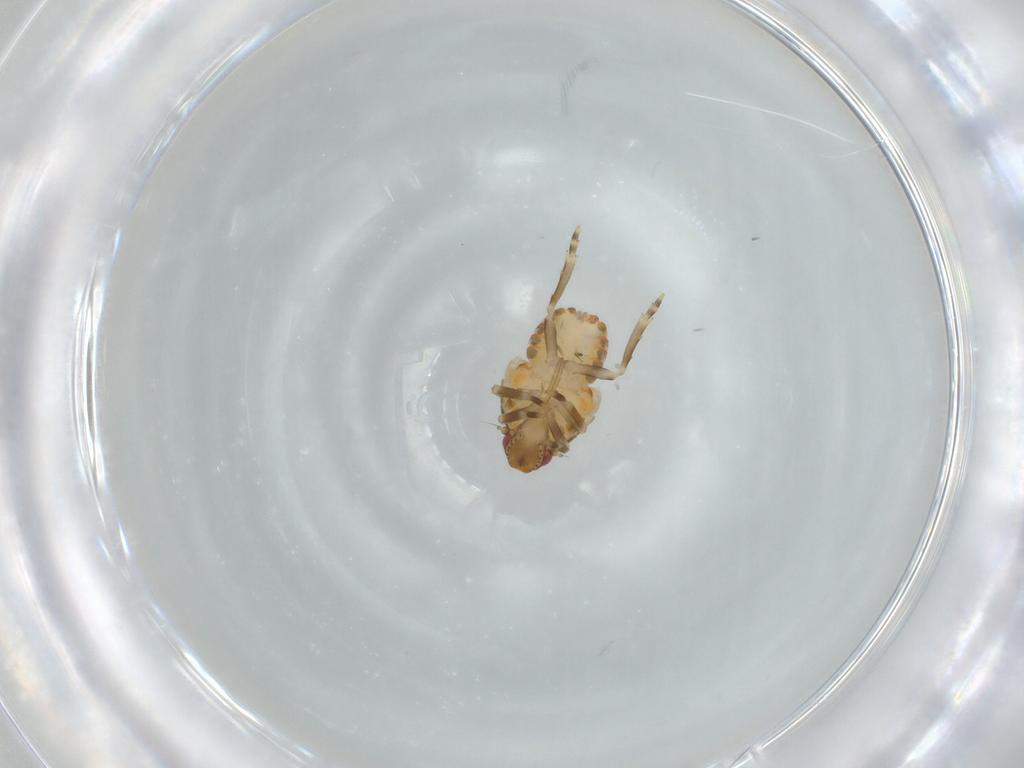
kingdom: Animalia
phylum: Arthropoda
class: Insecta
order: Hemiptera
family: Flatidae
